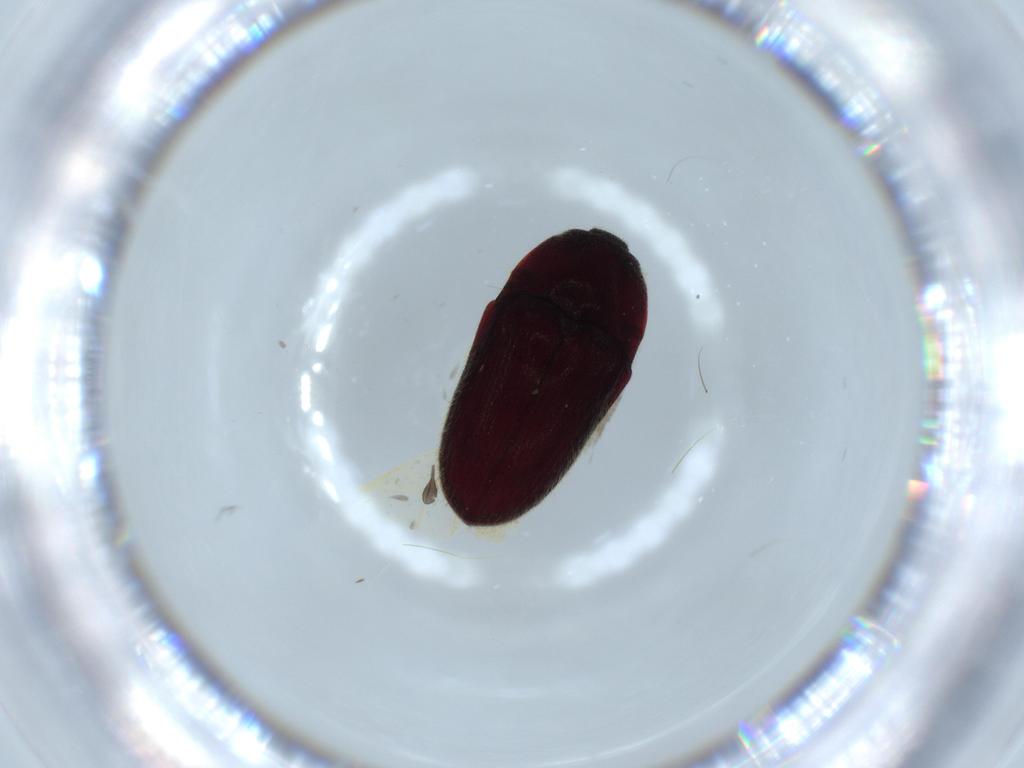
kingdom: Animalia
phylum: Arthropoda
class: Insecta
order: Coleoptera
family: Throscidae
